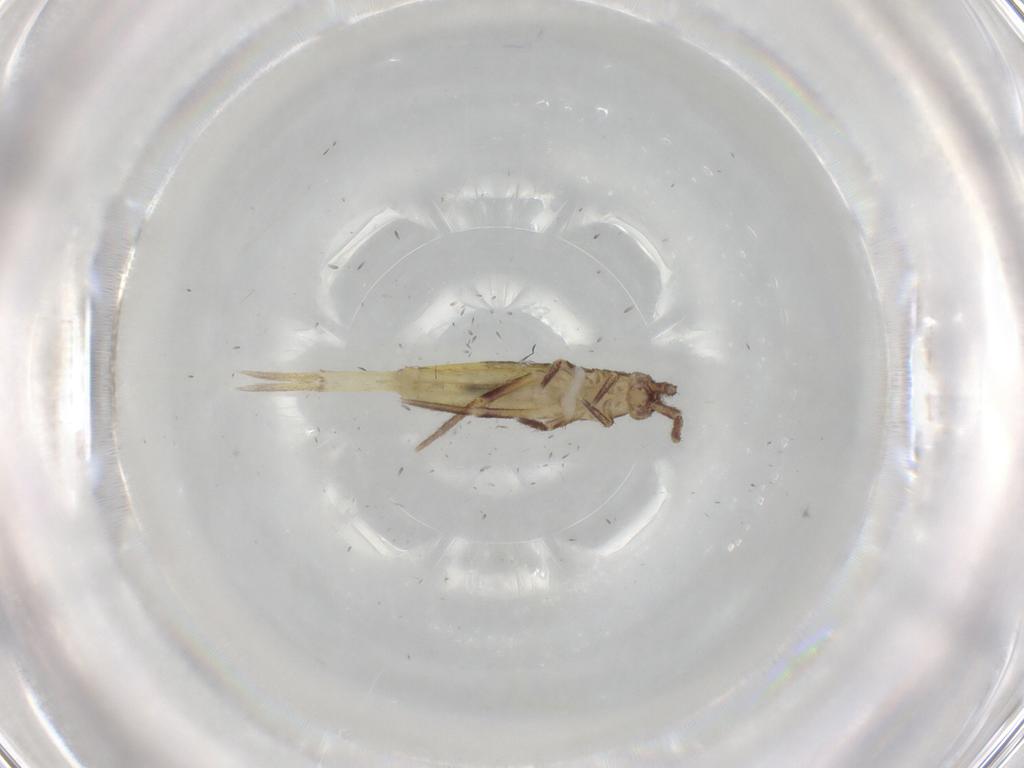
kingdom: Animalia
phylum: Arthropoda
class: Collembola
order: Entomobryomorpha
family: Entomobryidae
